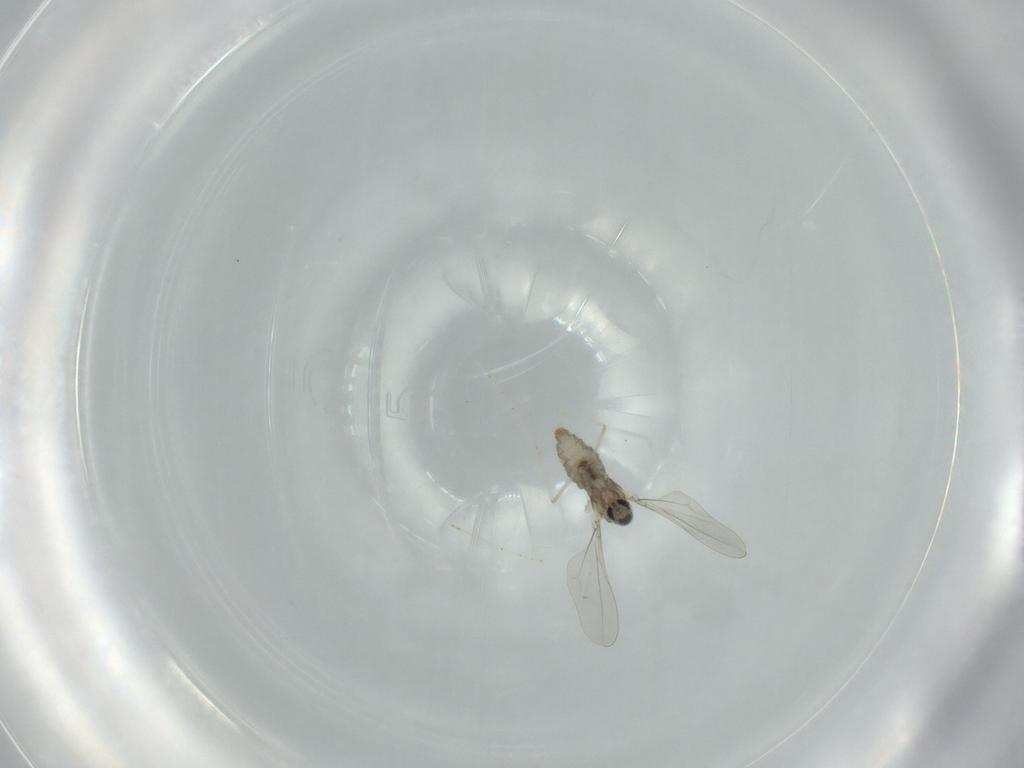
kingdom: Animalia
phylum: Arthropoda
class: Insecta
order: Diptera
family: Cecidomyiidae
